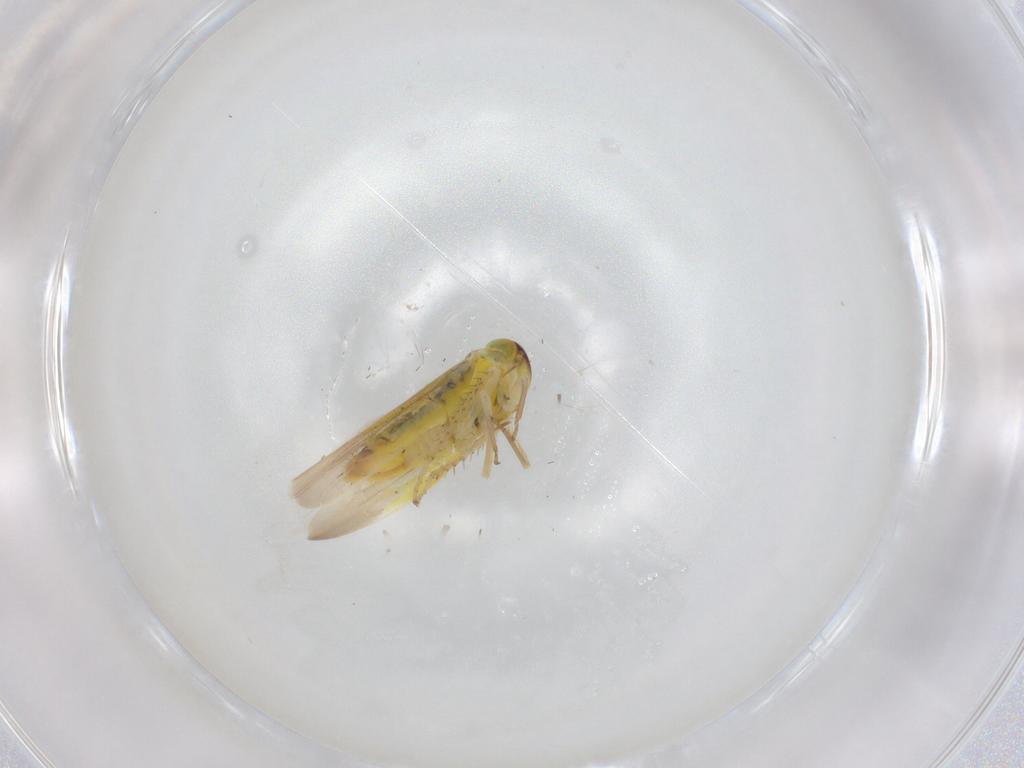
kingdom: Animalia
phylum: Arthropoda
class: Insecta
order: Hemiptera
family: Cicadellidae
